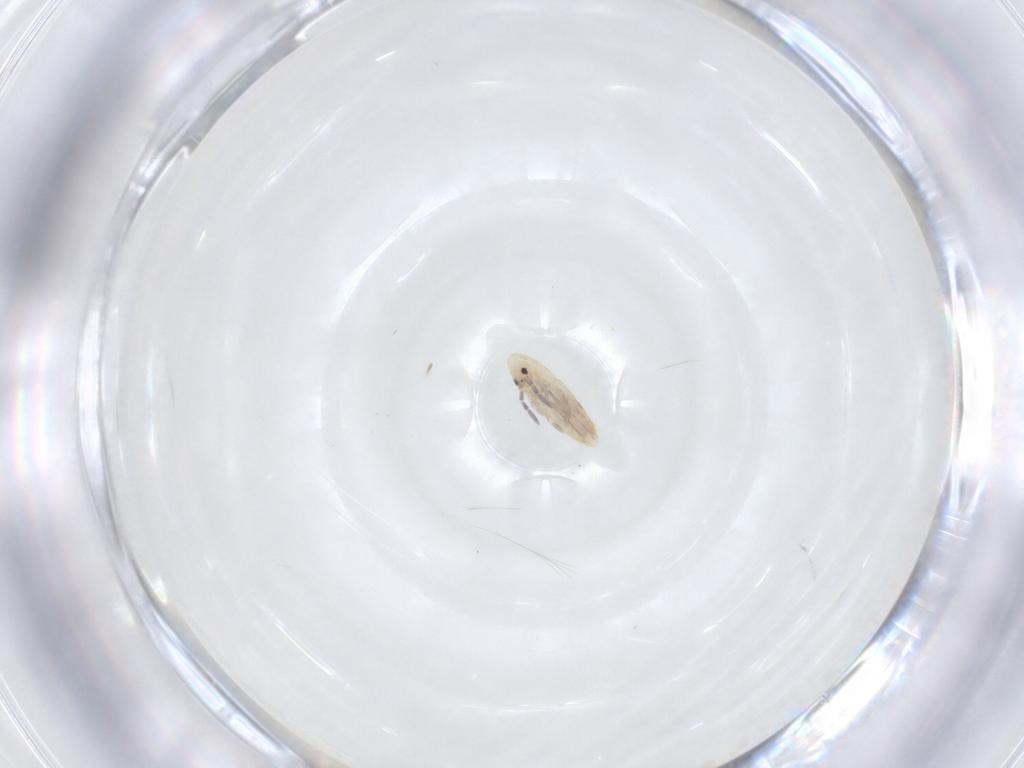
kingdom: Animalia
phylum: Arthropoda
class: Collembola
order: Entomobryomorpha
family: Entomobryidae
